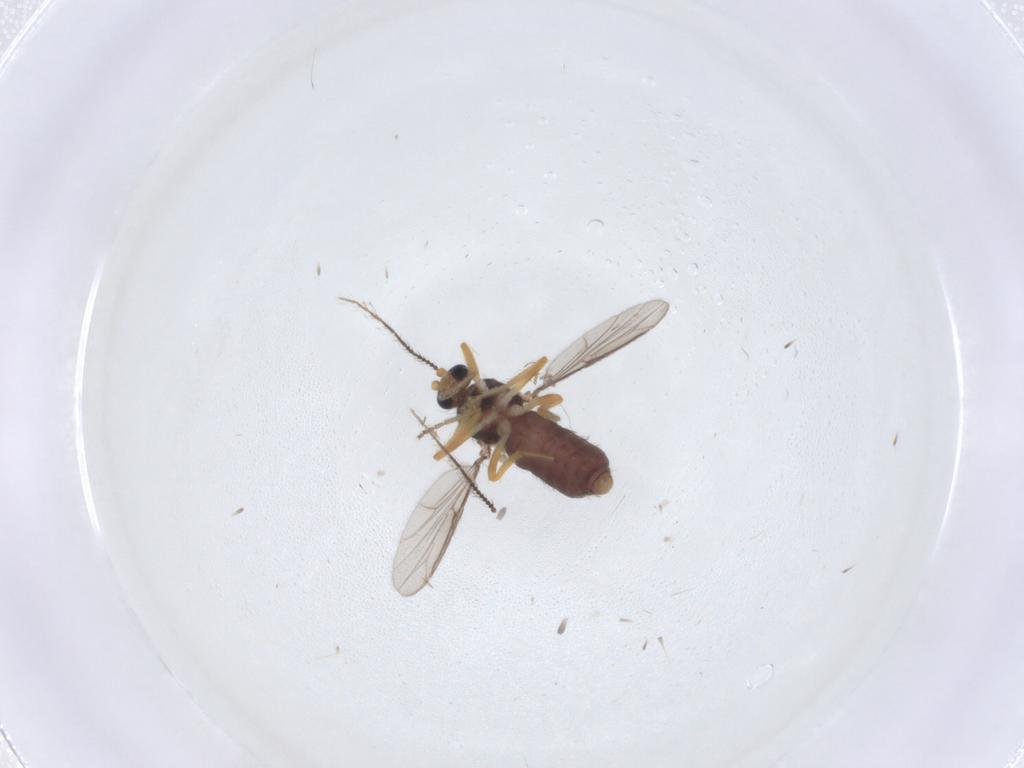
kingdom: Animalia
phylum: Arthropoda
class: Insecta
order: Diptera
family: Ceratopogonidae
